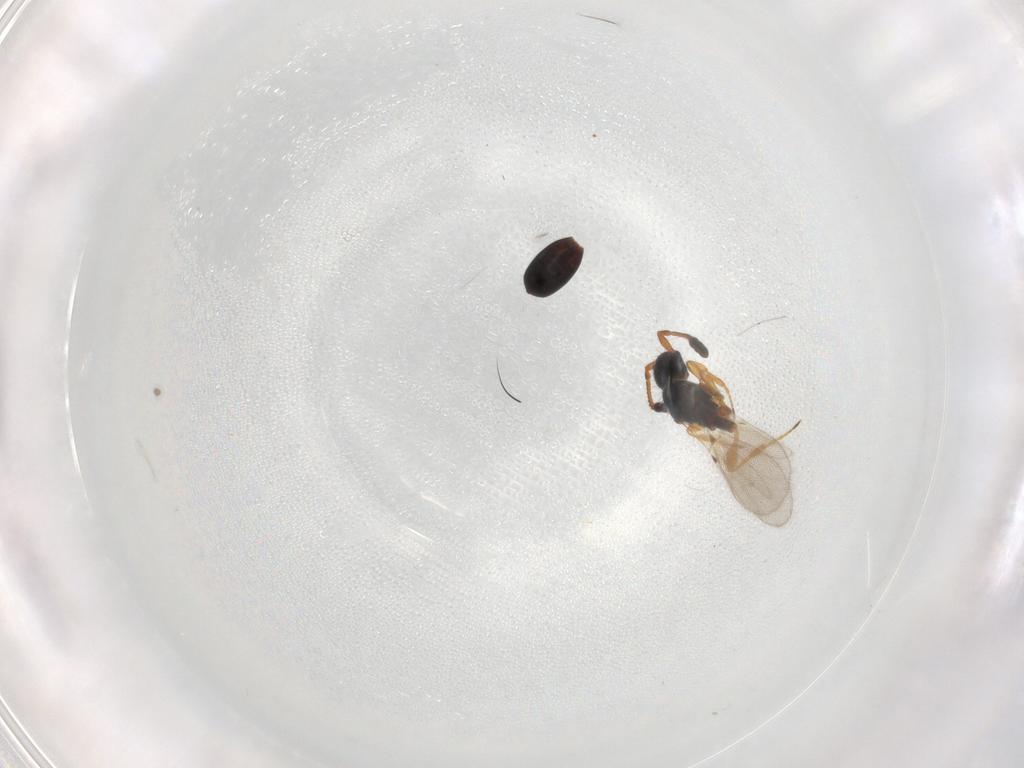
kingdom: Animalia
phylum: Arthropoda
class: Insecta
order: Hymenoptera
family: Diapriidae
